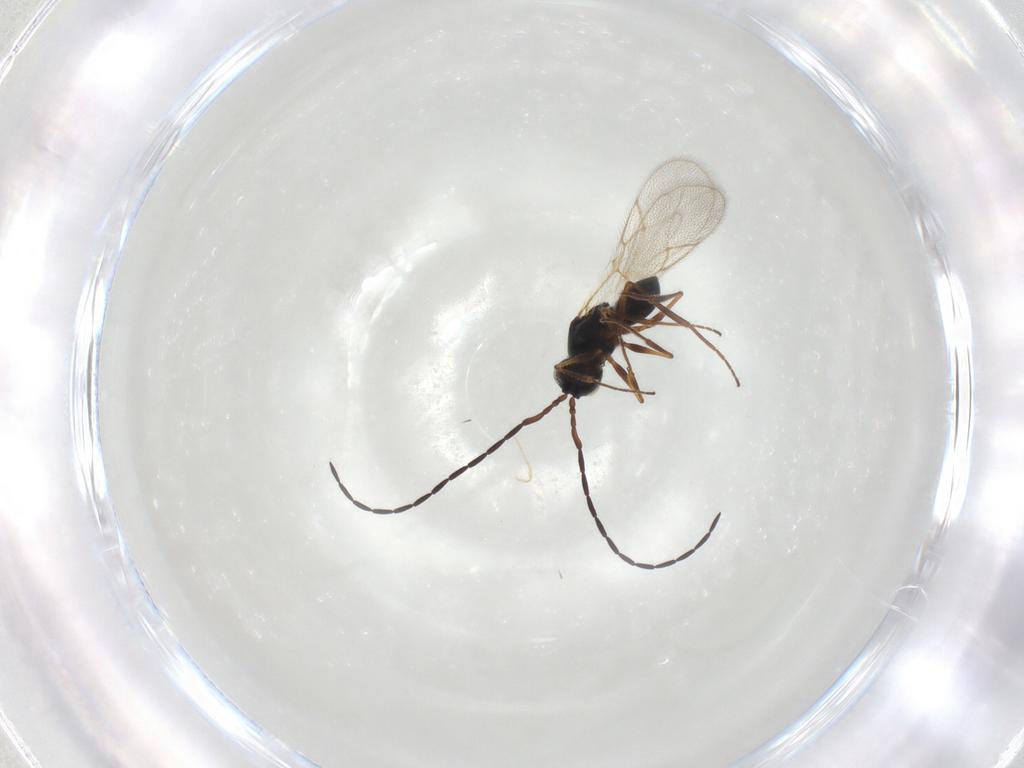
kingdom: Animalia
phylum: Arthropoda
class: Insecta
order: Hymenoptera
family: Figitidae
